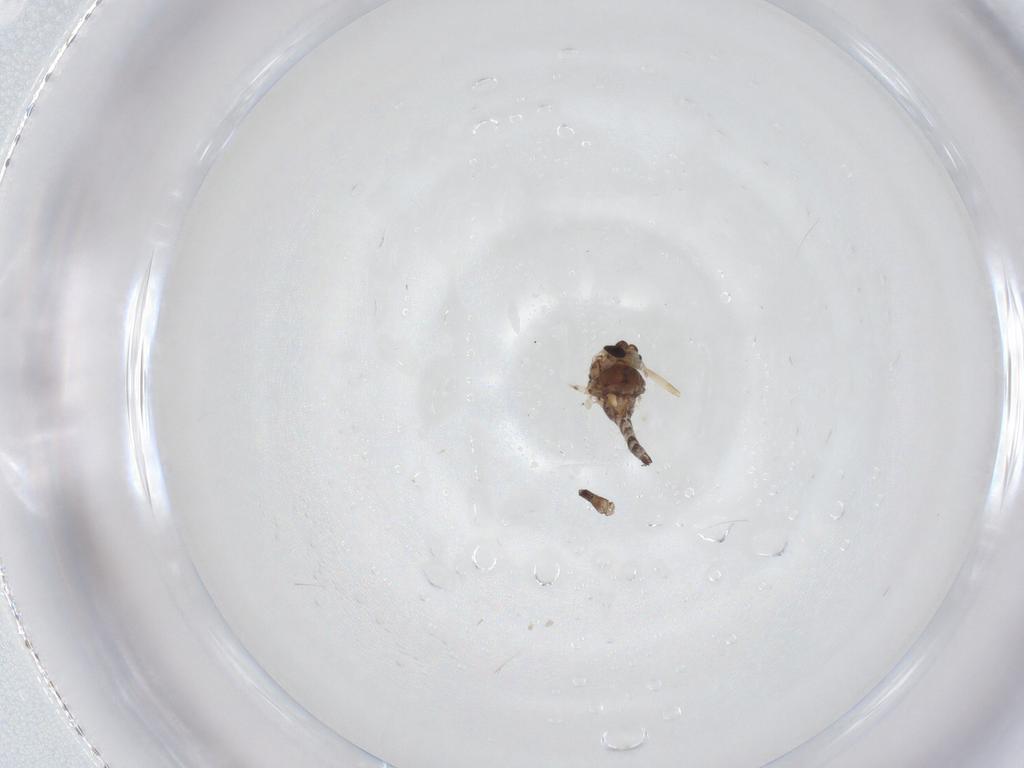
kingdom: Animalia
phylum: Arthropoda
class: Insecta
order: Diptera
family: Chironomidae
